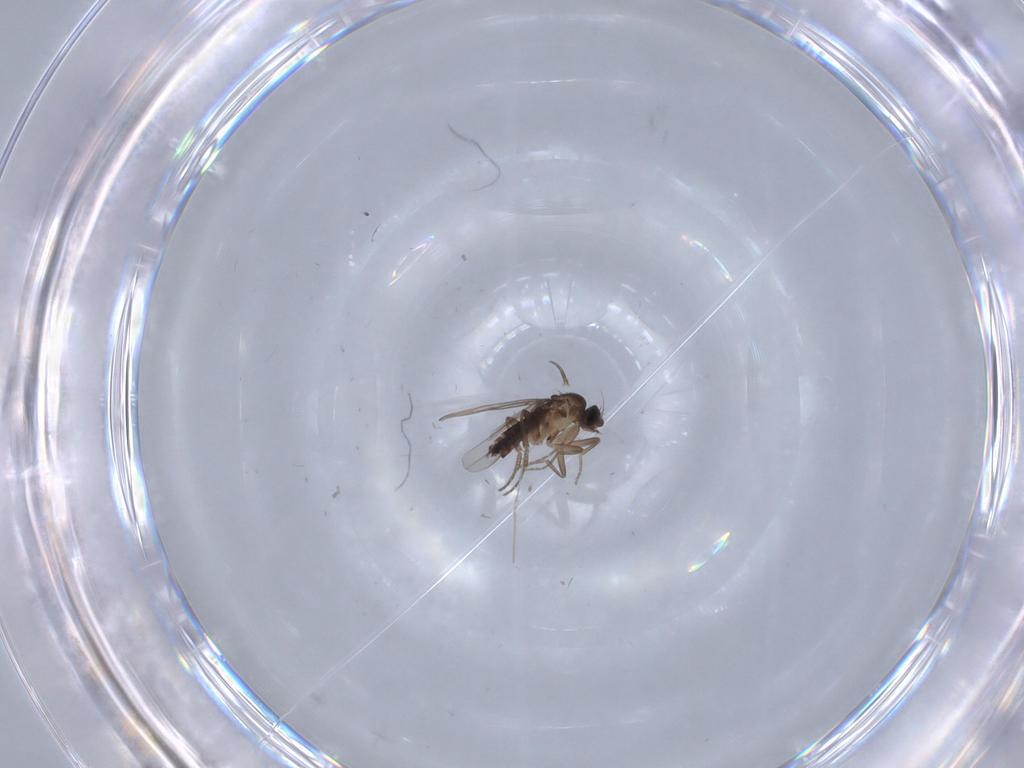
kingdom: Animalia
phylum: Arthropoda
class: Insecta
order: Diptera
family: Phoridae
